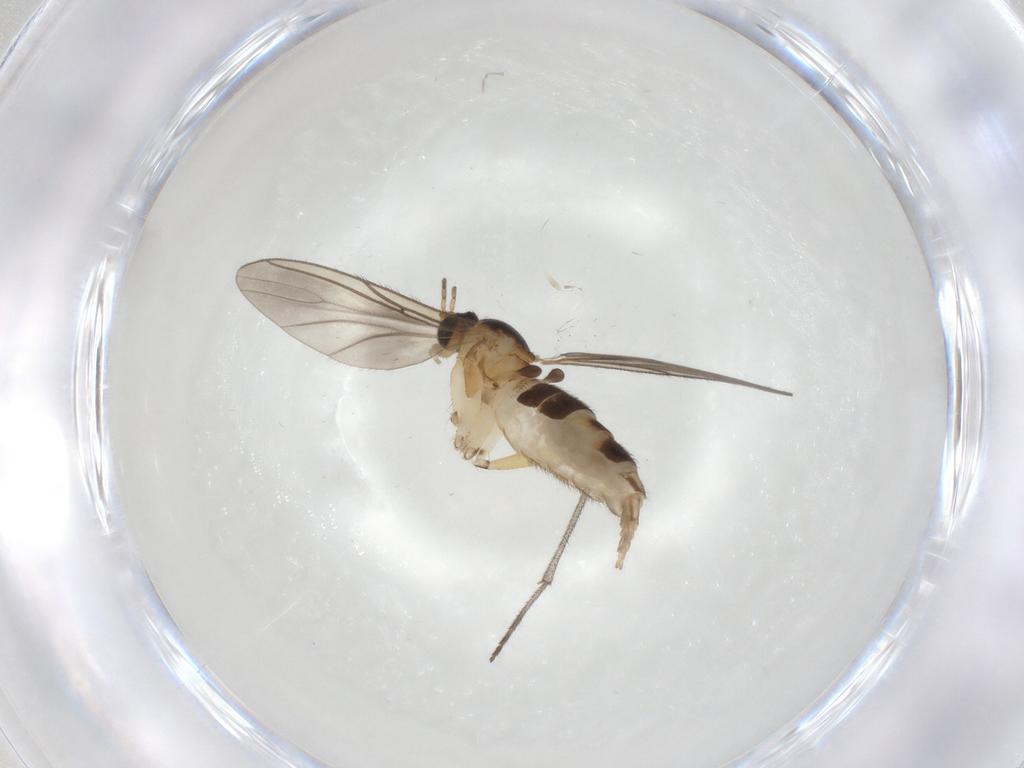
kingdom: Animalia
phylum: Arthropoda
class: Insecta
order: Diptera
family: Sciaridae
